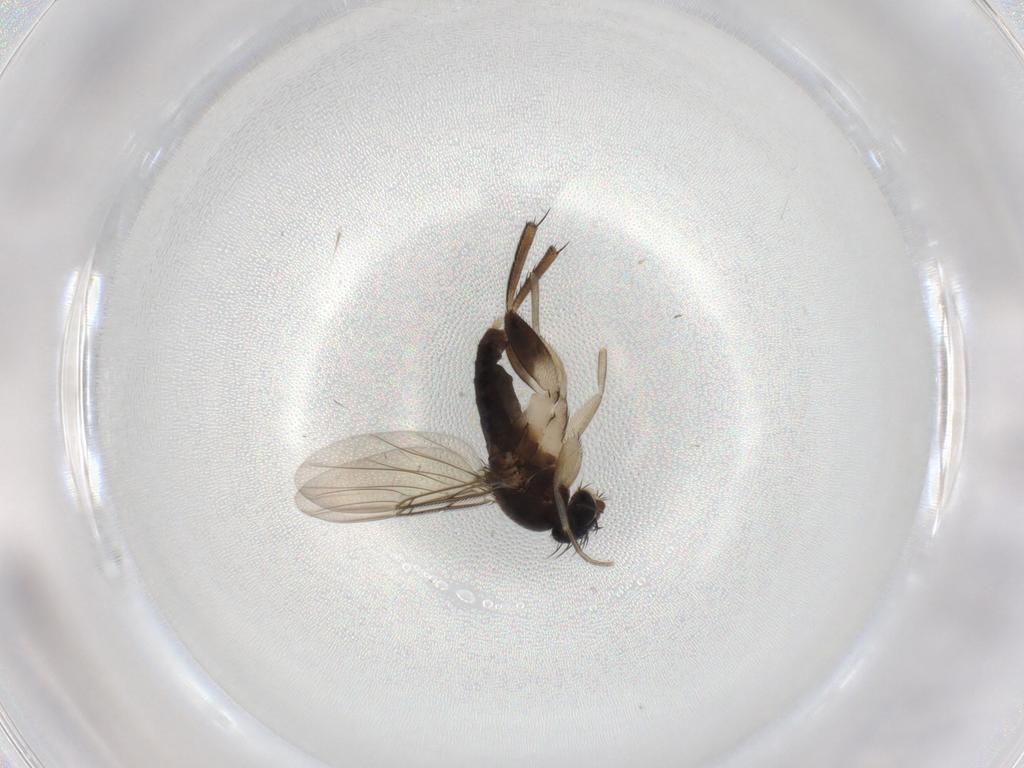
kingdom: Animalia
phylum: Arthropoda
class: Insecta
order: Diptera
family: Phoridae
